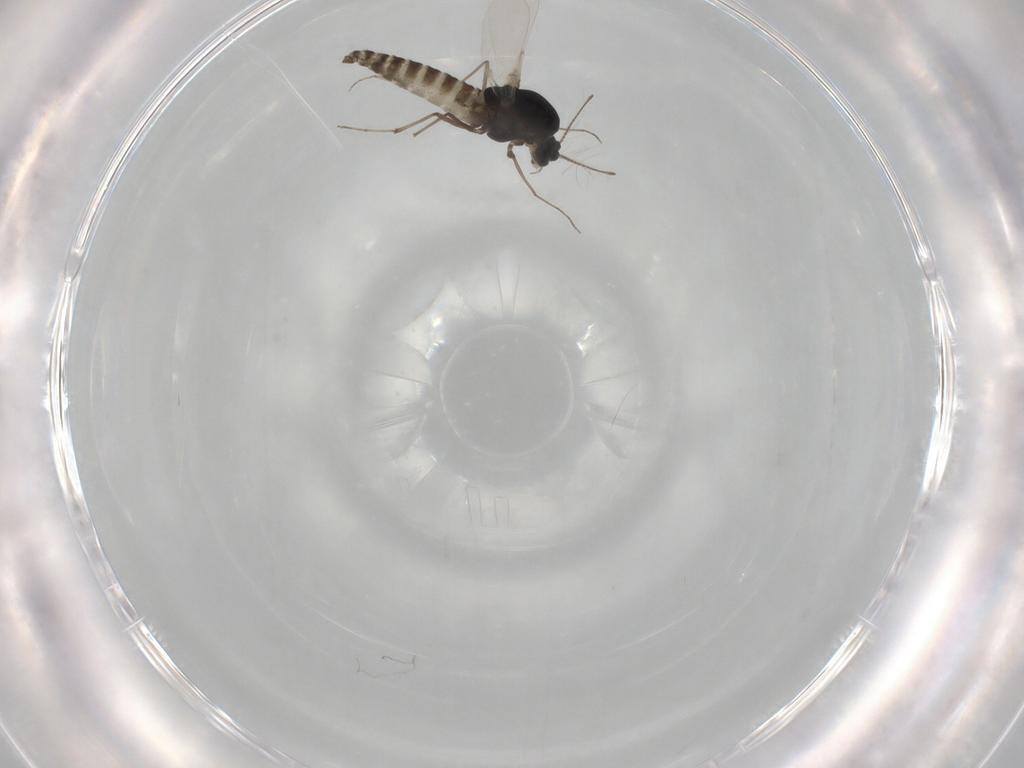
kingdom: Animalia
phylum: Arthropoda
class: Insecta
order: Diptera
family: Chironomidae
